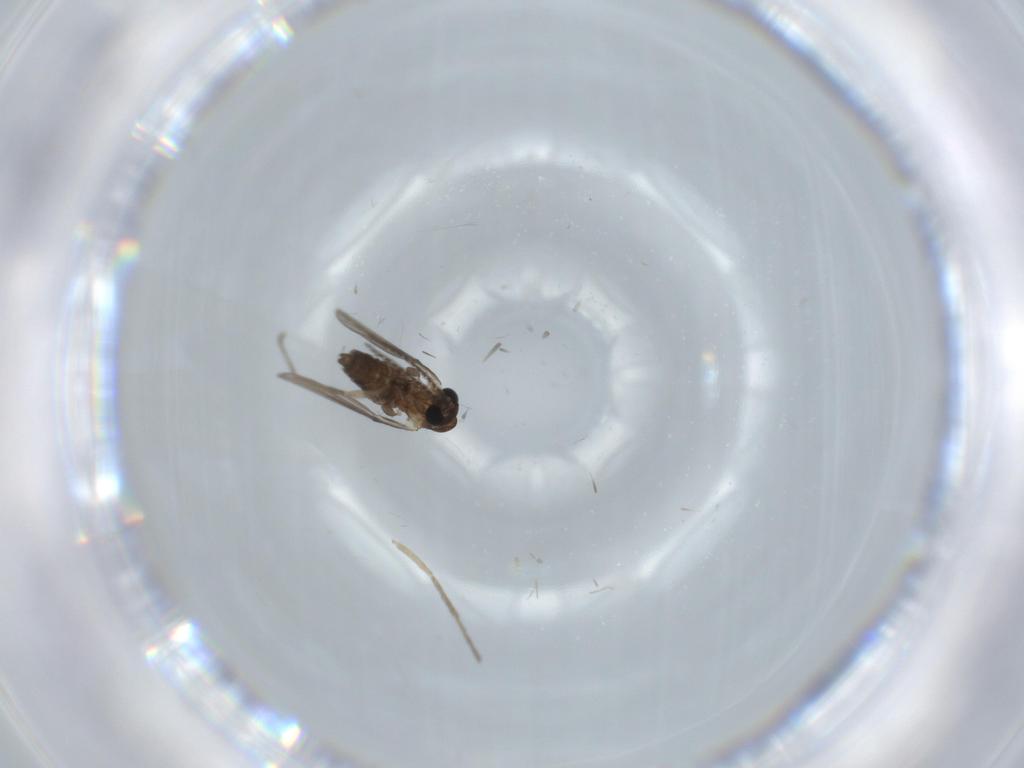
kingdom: Animalia
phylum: Arthropoda
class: Insecta
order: Diptera
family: Psychodidae
